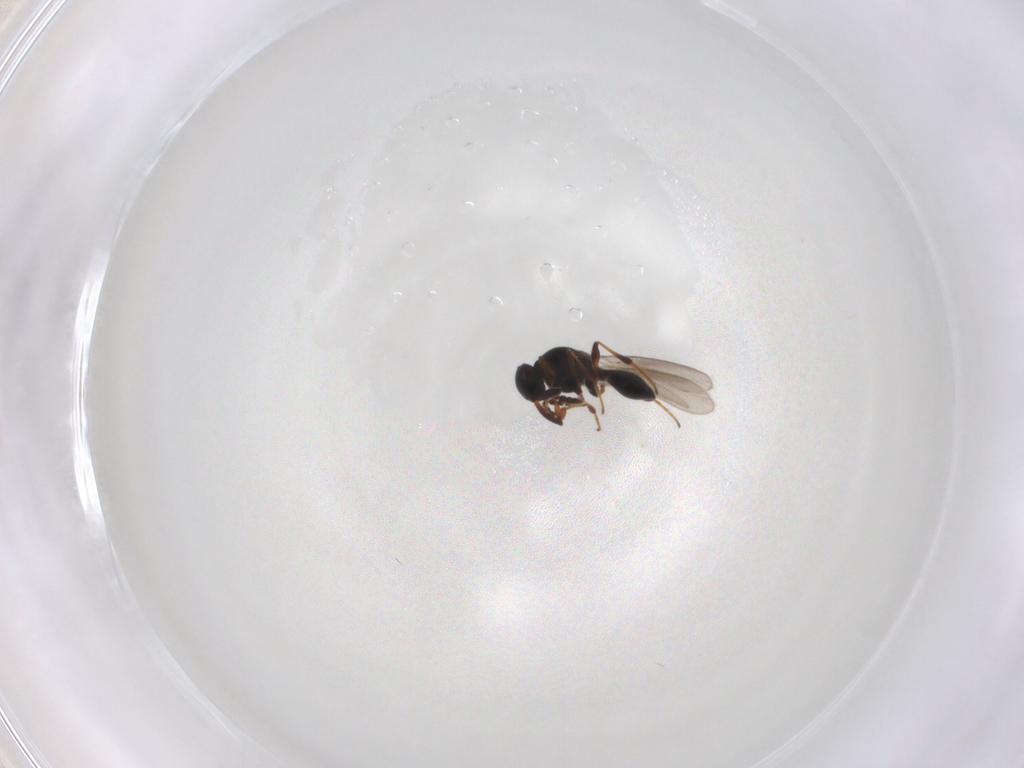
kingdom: Animalia
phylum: Arthropoda
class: Insecta
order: Hymenoptera
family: Platygastridae
